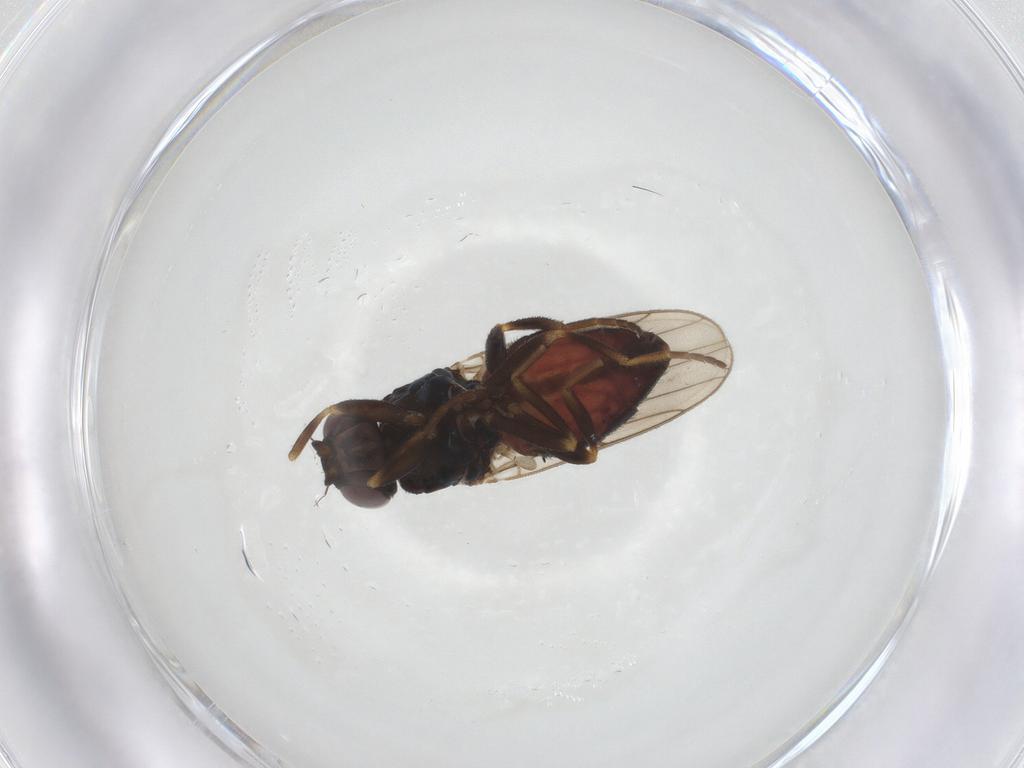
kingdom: Animalia
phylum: Arthropoda
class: Insecta
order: Diptera
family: Chloropidae
